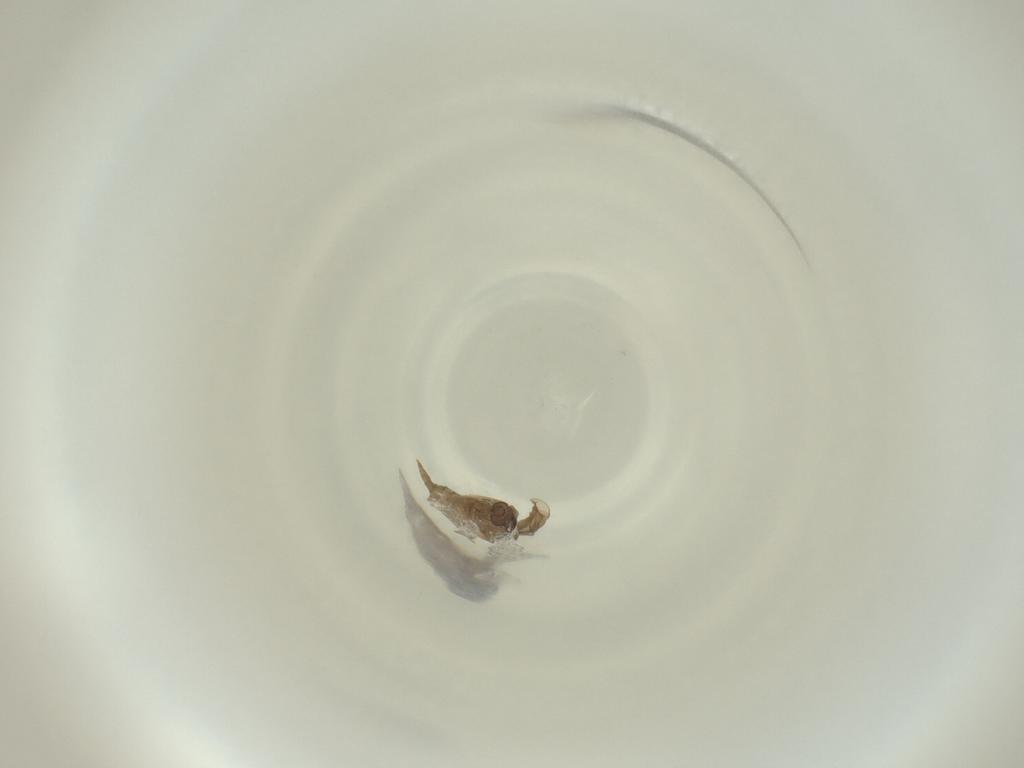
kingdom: Animalia
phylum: Arthropoda
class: Insecta
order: Diptera
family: Cecidomyiidae
